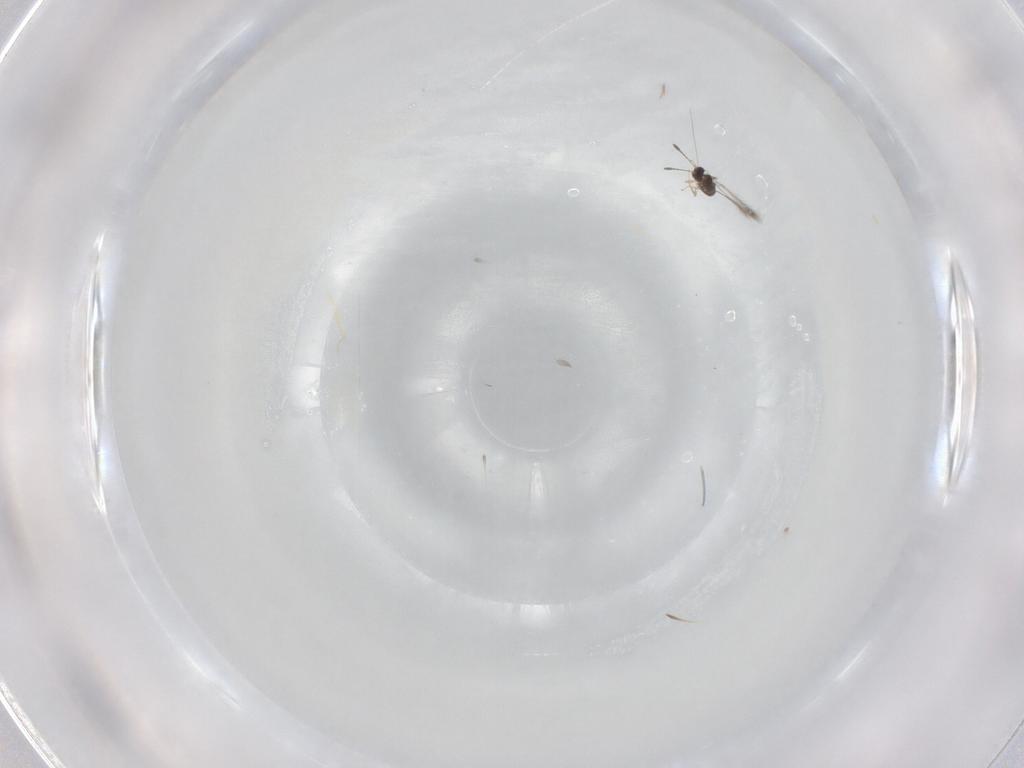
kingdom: Animalia
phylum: Arthropoda
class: Insecta
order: Hymenoptera
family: Mymaridae
